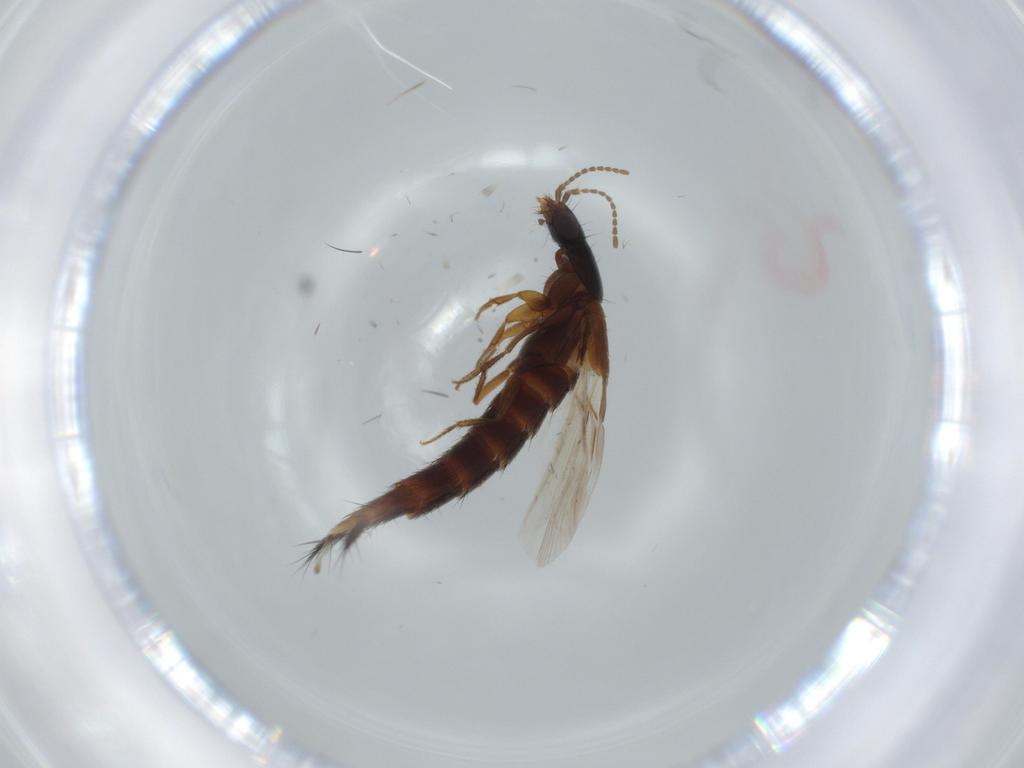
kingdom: Animalia
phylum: Arthropoda
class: Insecta
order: Coleoptera
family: Staphylinidae
